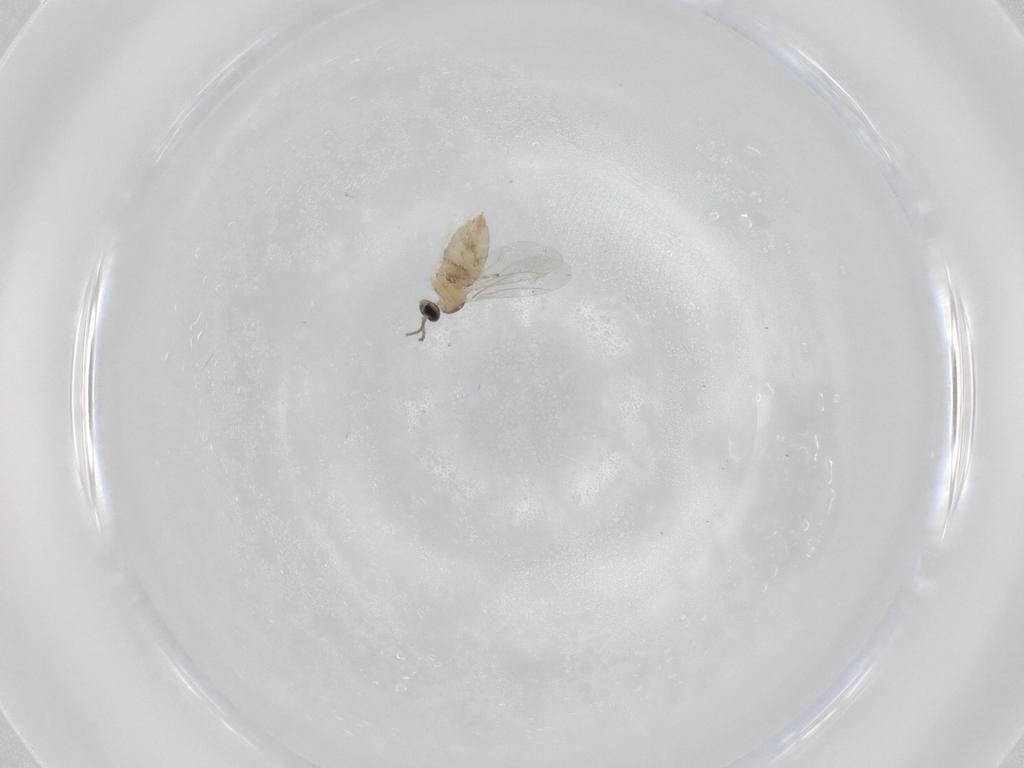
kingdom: Animalia
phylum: Arthropoda
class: Insecta
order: Diptera
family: Cecidomyiidae
